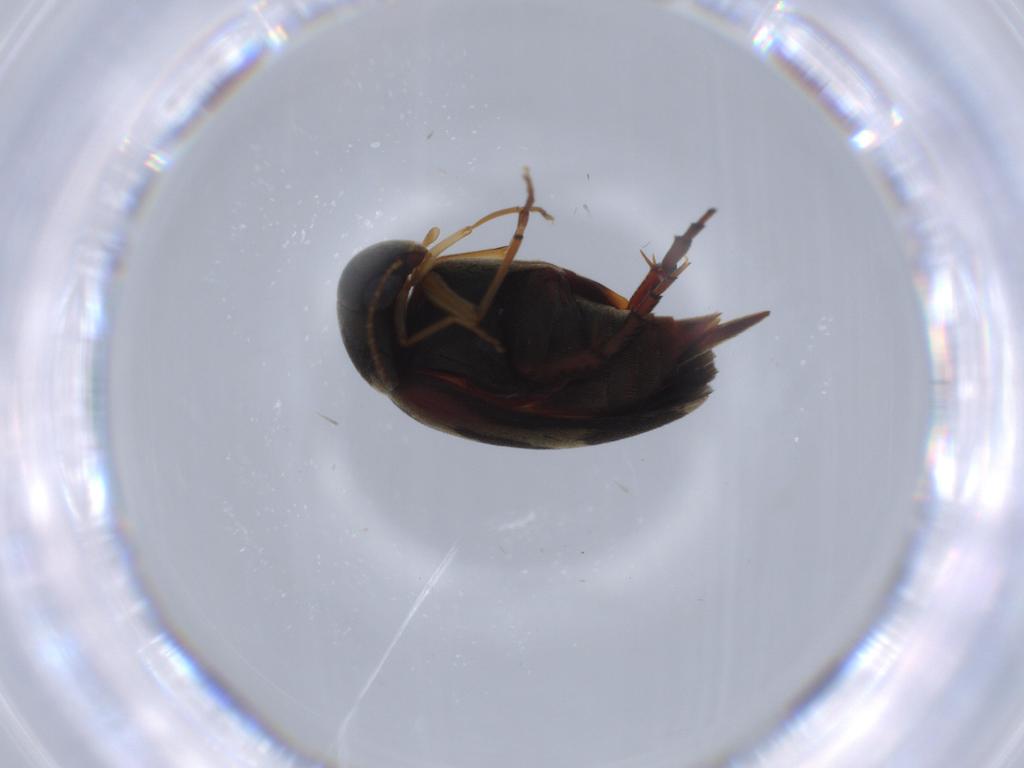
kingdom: Animalia
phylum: Arthropoda
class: Insecta
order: Coleoptera
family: Mordellidae
